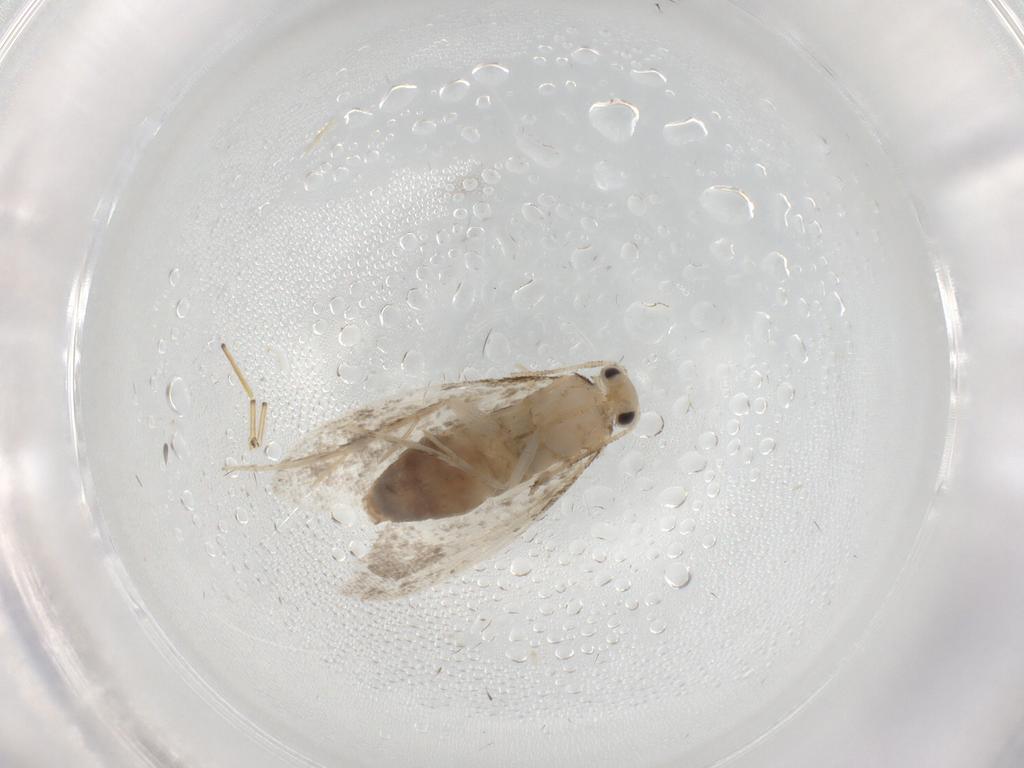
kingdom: Animalia
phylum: Arthropoda
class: Insecta
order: Lepidoptera
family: Tineidae
